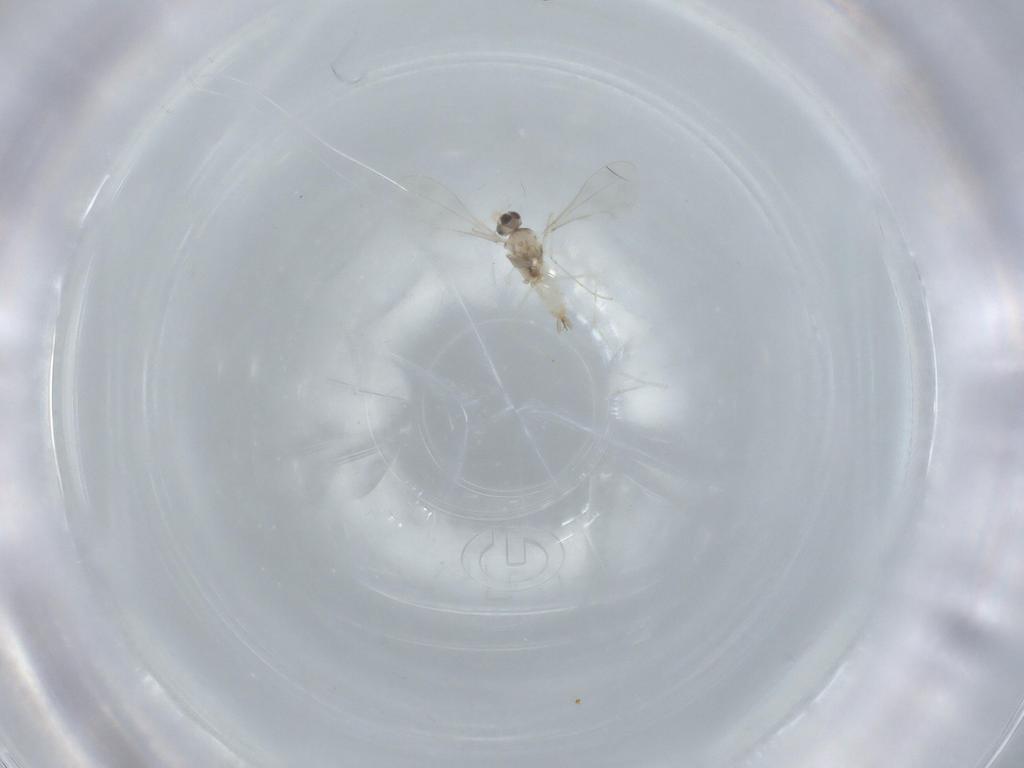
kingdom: Animalia
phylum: Arthropoda
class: Insecta
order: Diptera
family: Cecidomyiidae
